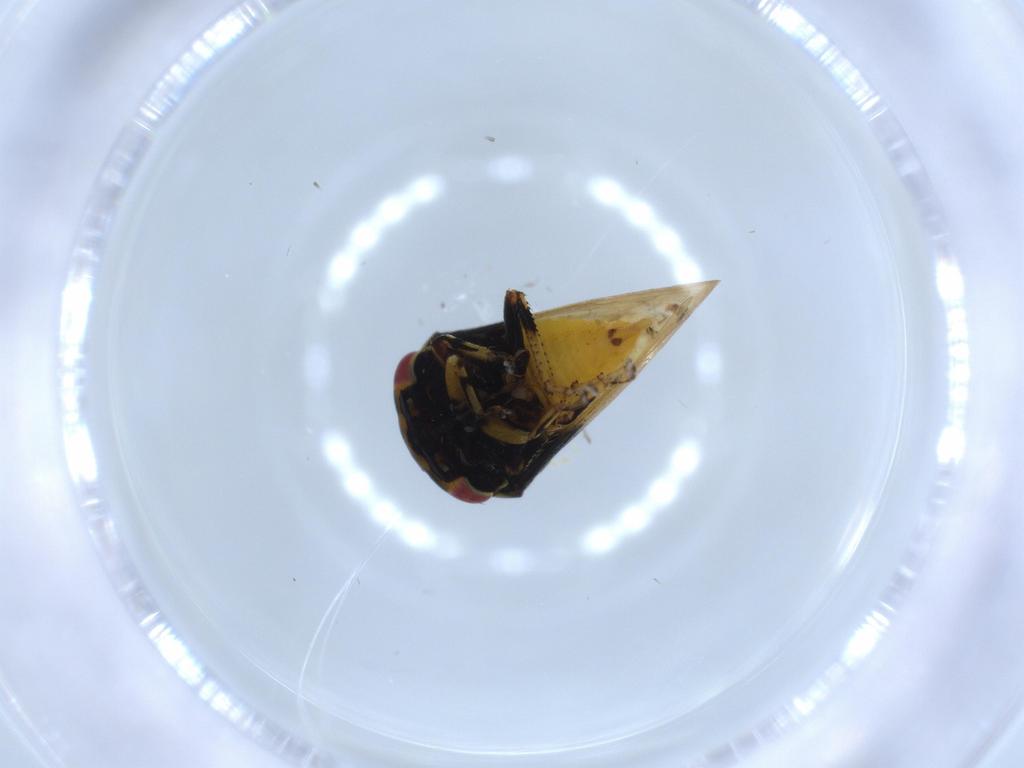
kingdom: Animalia
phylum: Arthropoda
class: Insecta
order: Hemiptera
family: Membracidae
